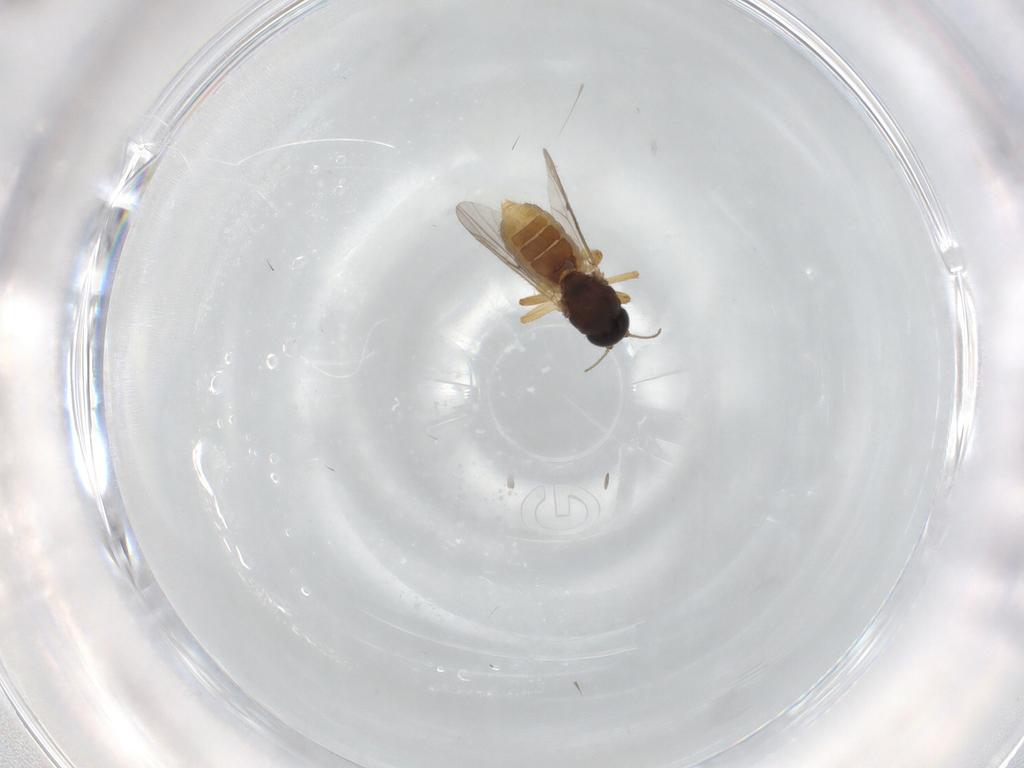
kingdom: Animalia
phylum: Arthropoda
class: Insecta
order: Diptera
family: Ceratopogonidae
